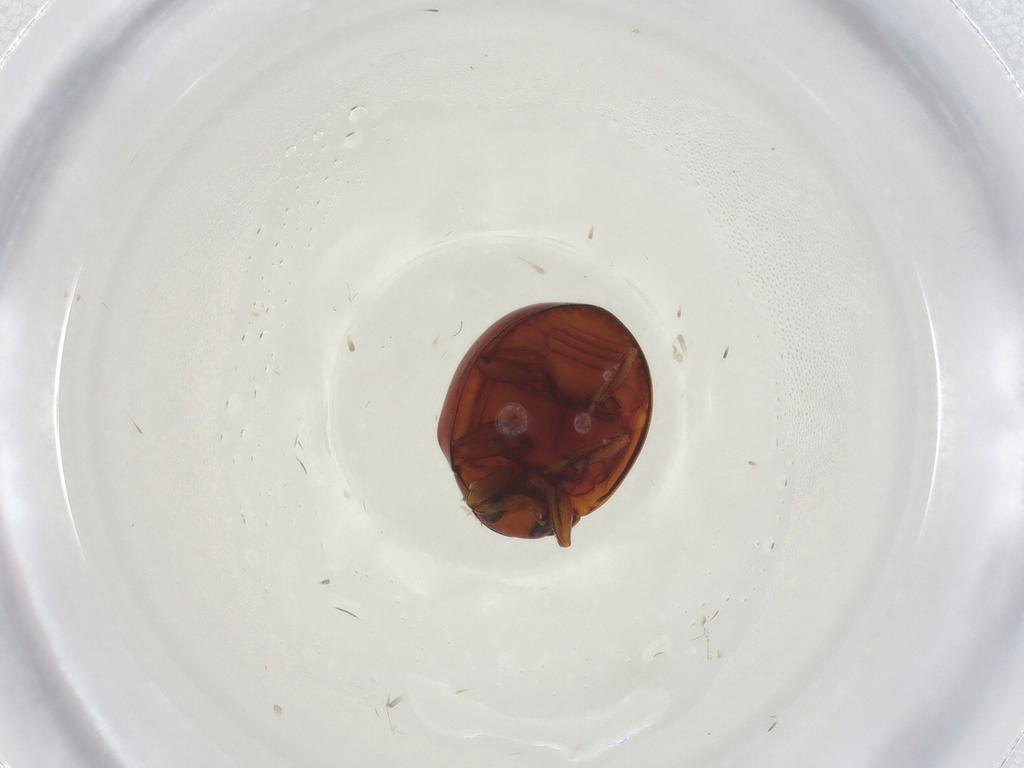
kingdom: Animalia
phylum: Arthropoda
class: Insecta
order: Coleoptera
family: Coccinellidae
